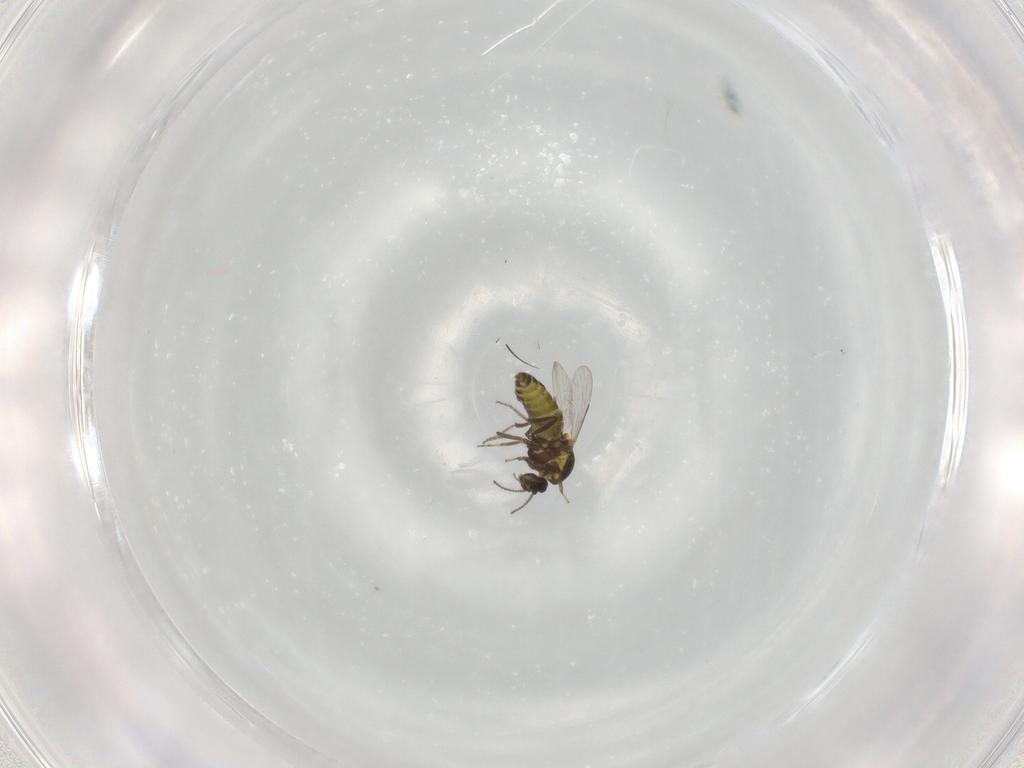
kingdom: Animalia
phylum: Arthropoda
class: Insecta
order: Diptera
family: Ceratopogonidae
